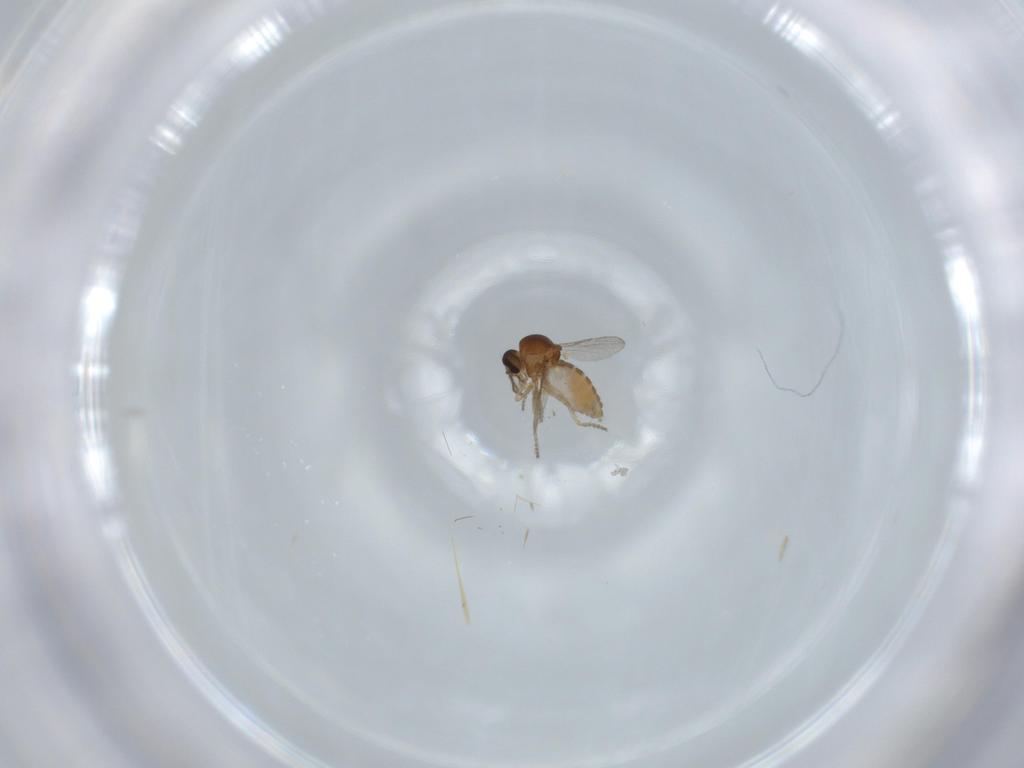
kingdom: Animalia
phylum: Arthropoda
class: Insecta
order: Diptera
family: Ceratopogonidae
